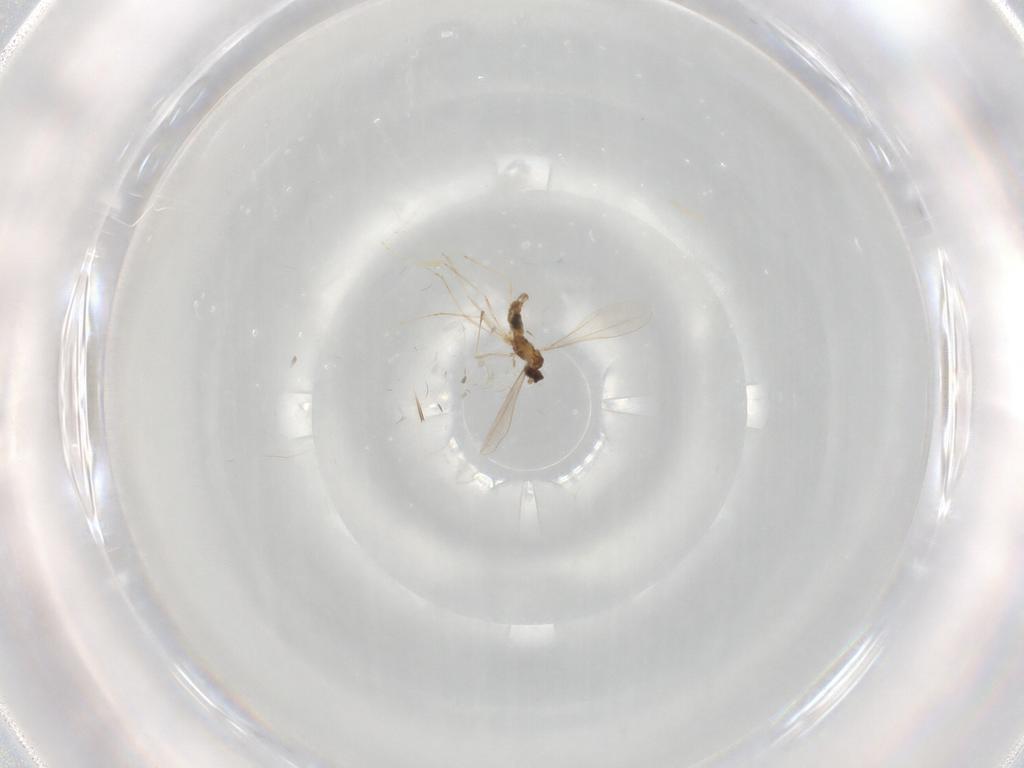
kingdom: Animalia
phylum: Arthropoda
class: Insecta
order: Diptera
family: Cecidomyiidae
